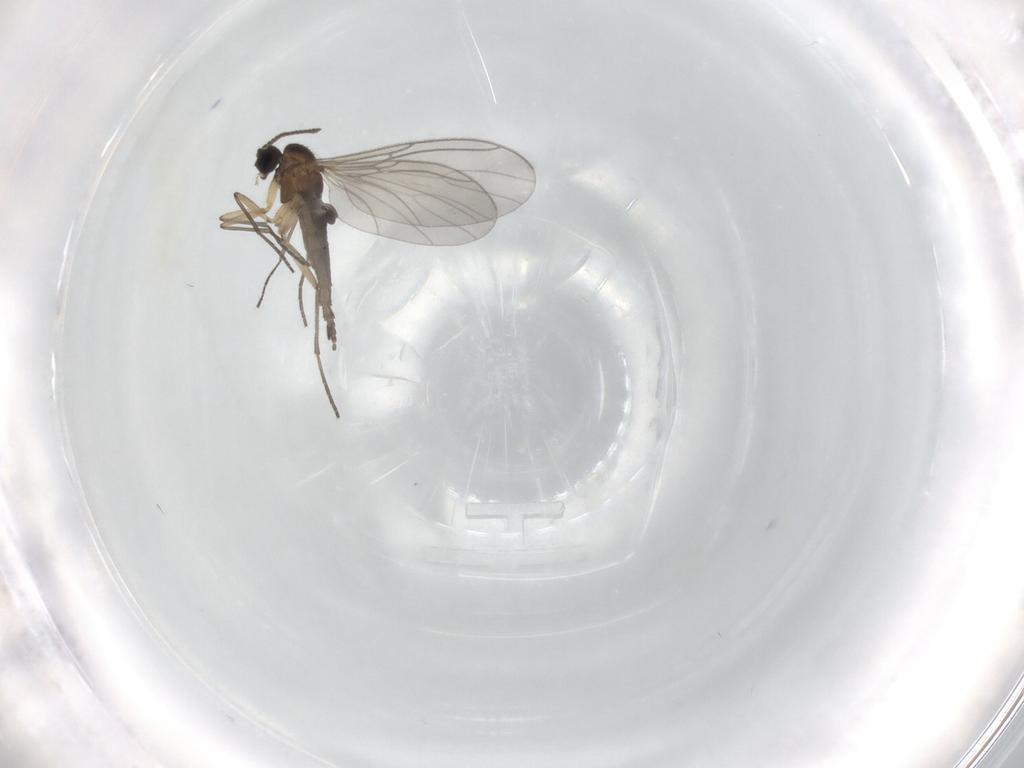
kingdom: Animalia
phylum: Arthropoda
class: Insecta
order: Diptera
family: Sciaridae
